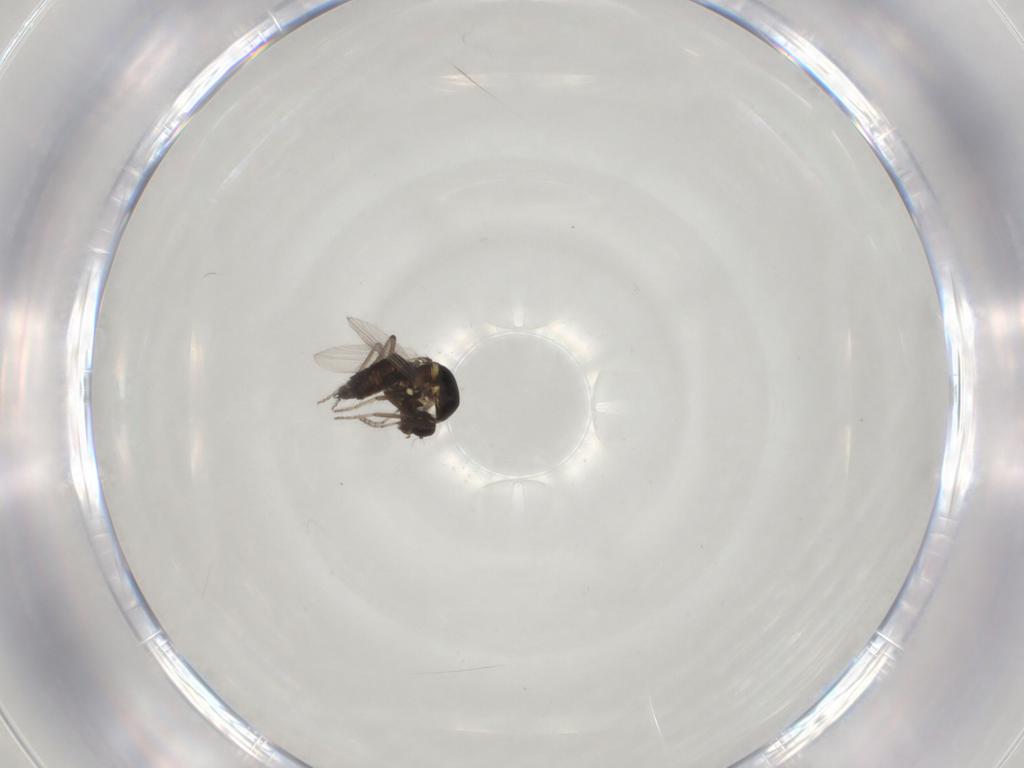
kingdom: Animalia
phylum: Arthropoda
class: Insecta
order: Diptera
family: Ceratopogonidae
